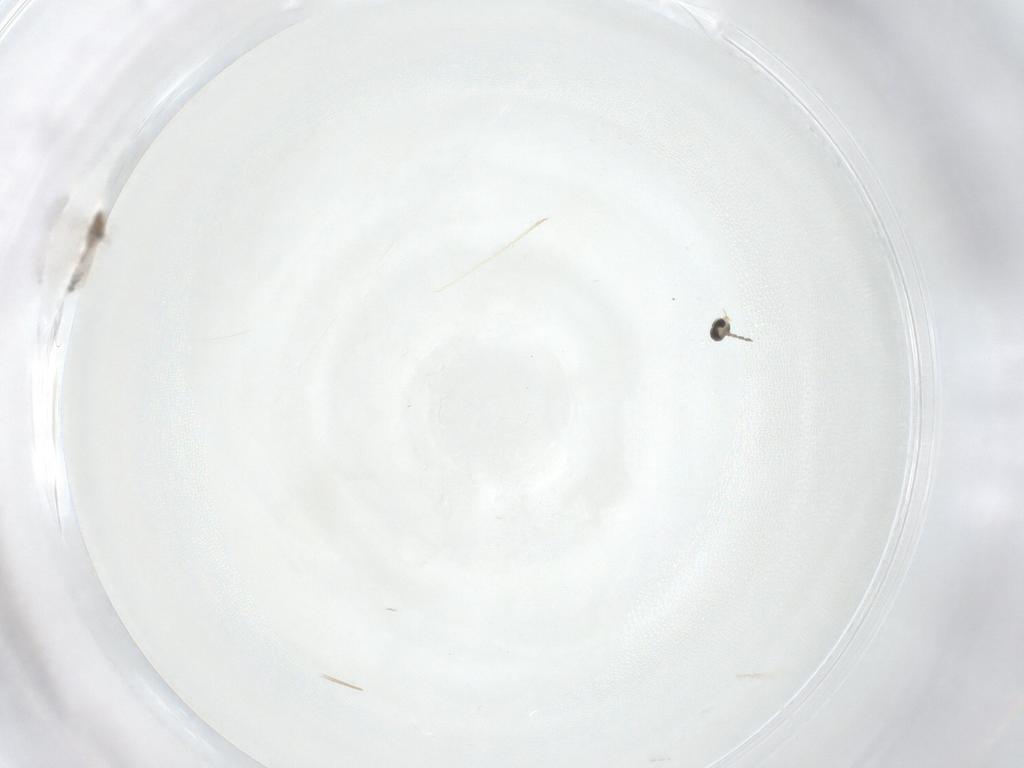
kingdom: Animalia
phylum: Arthropoda
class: Insecta
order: Diptera
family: Cecidomyiidae
